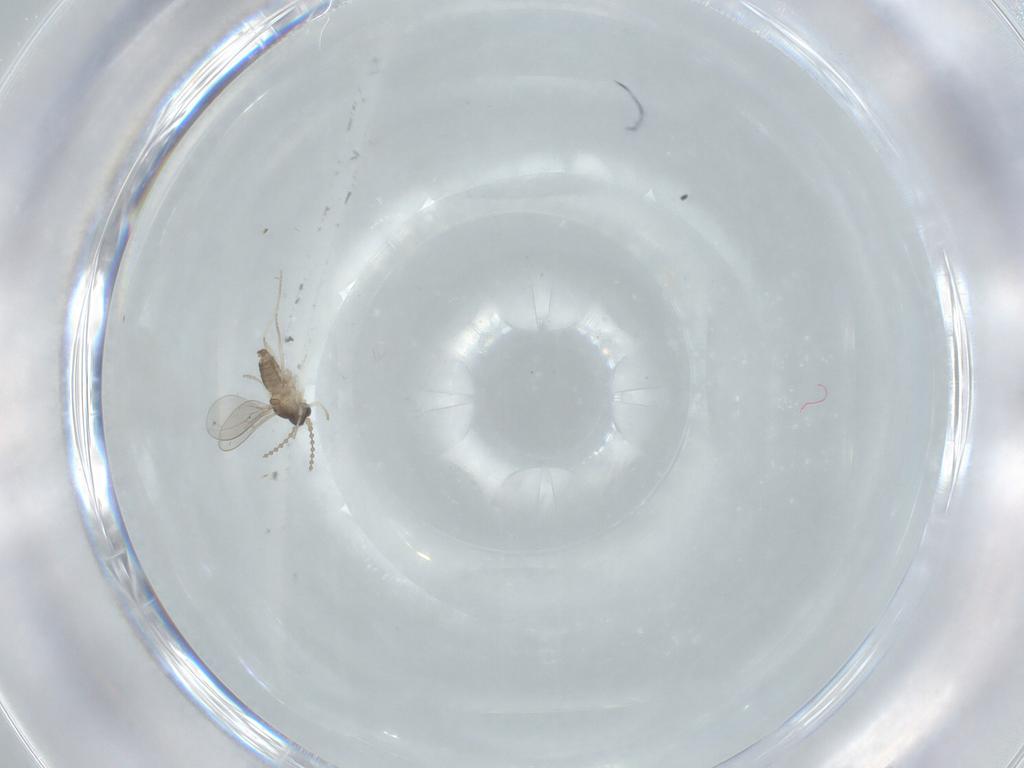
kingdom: Animalia
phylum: Arthropoda
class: Insecta
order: Diptera
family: Cecidomyiidae
